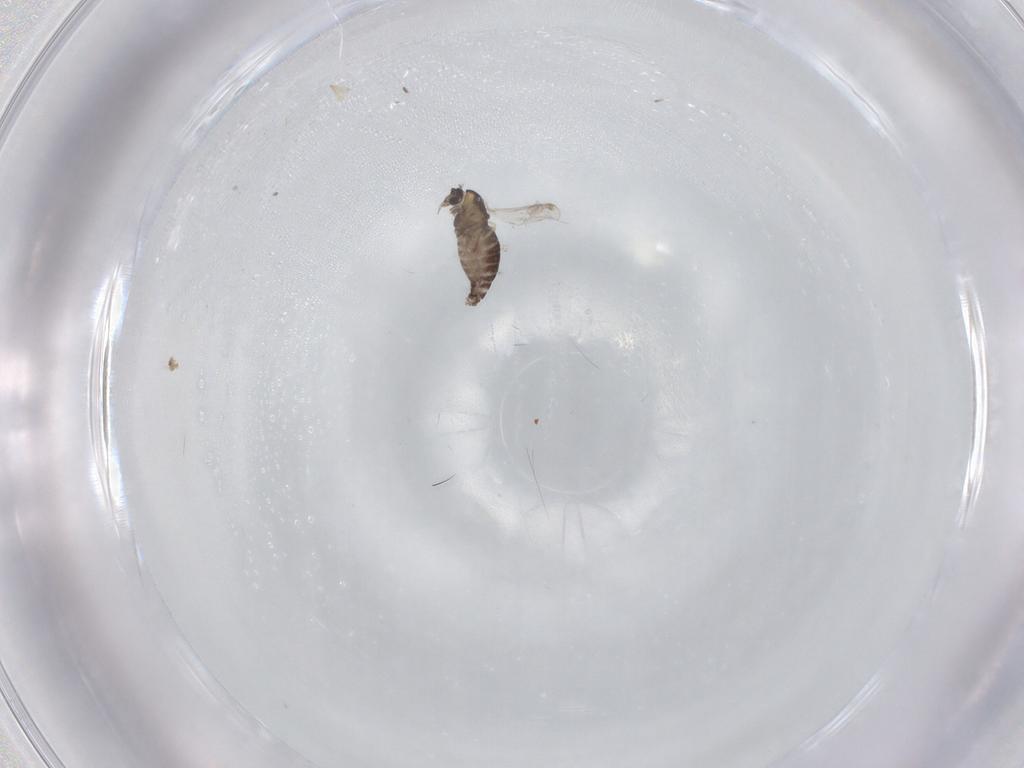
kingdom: Animalia
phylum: Arthropoda
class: Insecta
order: Diptera
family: Chironomidae
